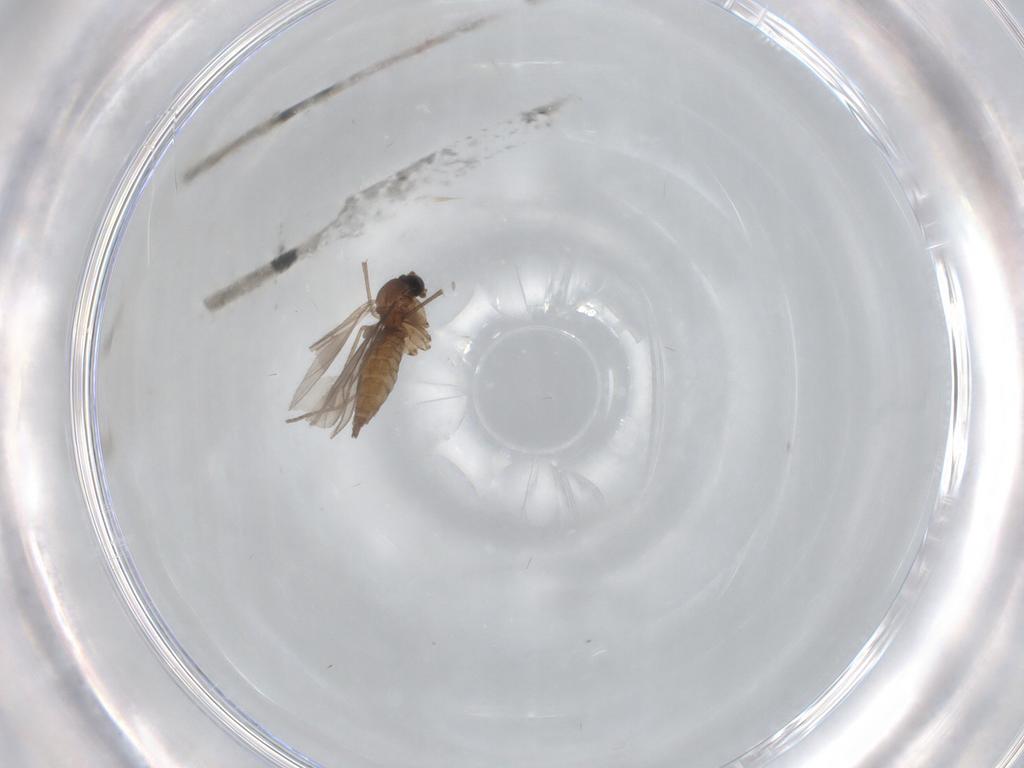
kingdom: Animalia
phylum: Arthropoda
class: Insecta
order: Diptera
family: Sciaridae
